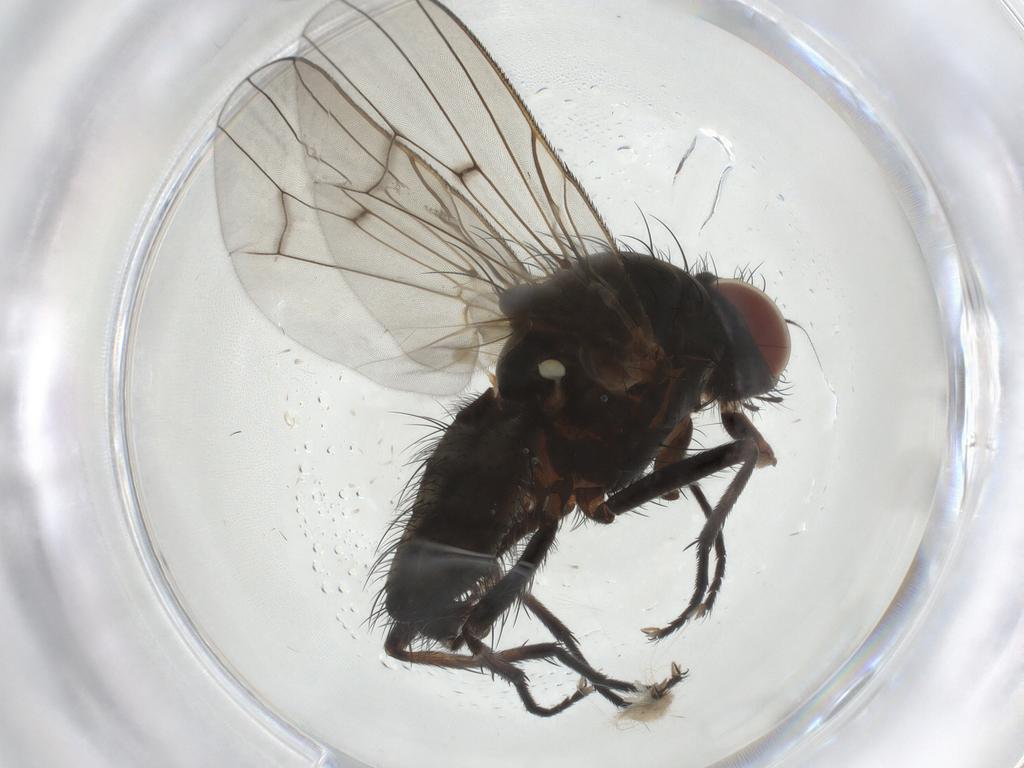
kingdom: Animalia
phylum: Arthropoda
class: Insecta
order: Diptera
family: Anthomyiidae
